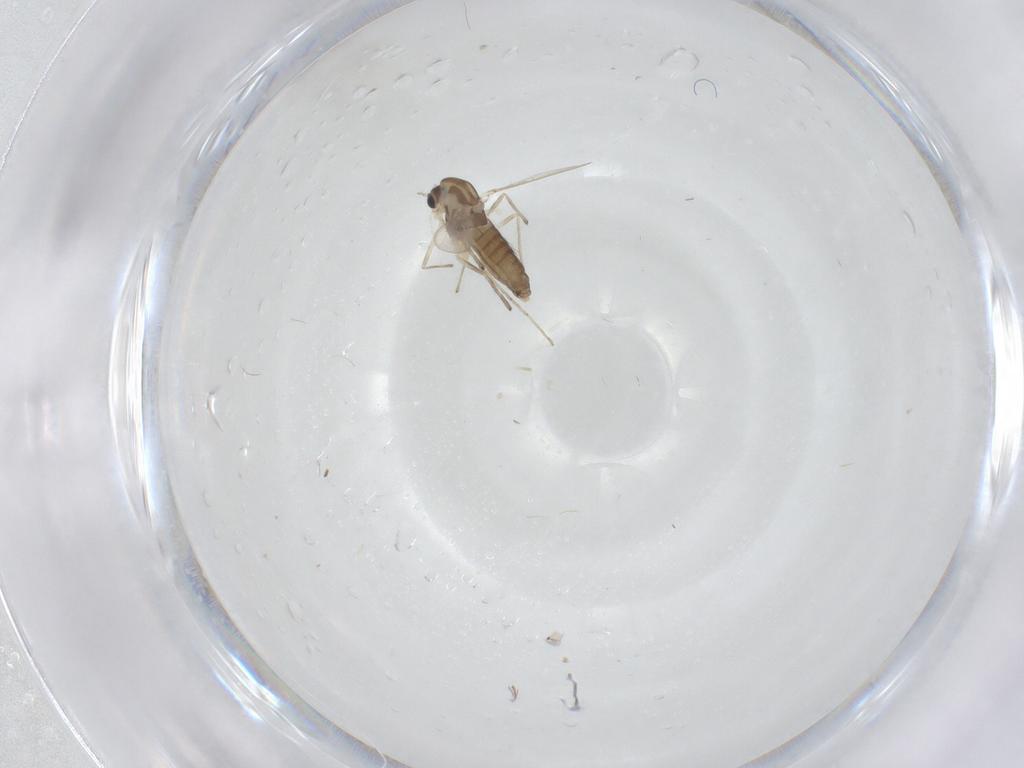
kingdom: Animalia
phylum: Arthropoda
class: Insecta
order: Diptera
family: Chironomidae
